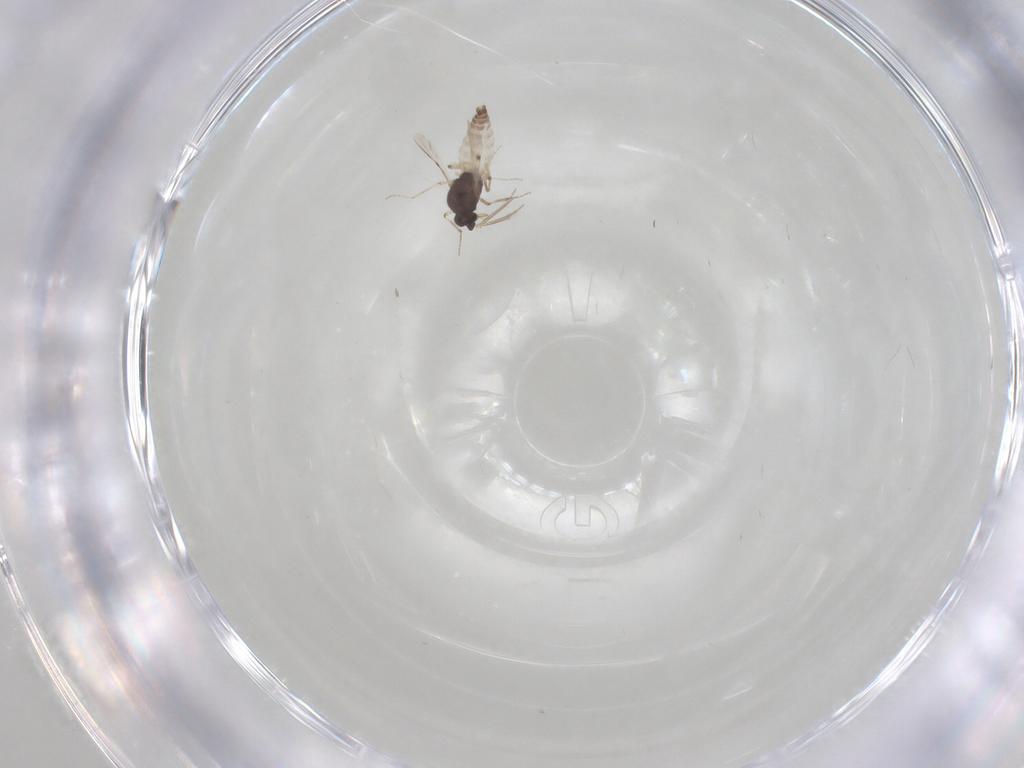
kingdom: Animalia
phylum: Arthropoda
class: Insecta
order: Diptera
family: Chironomidae
